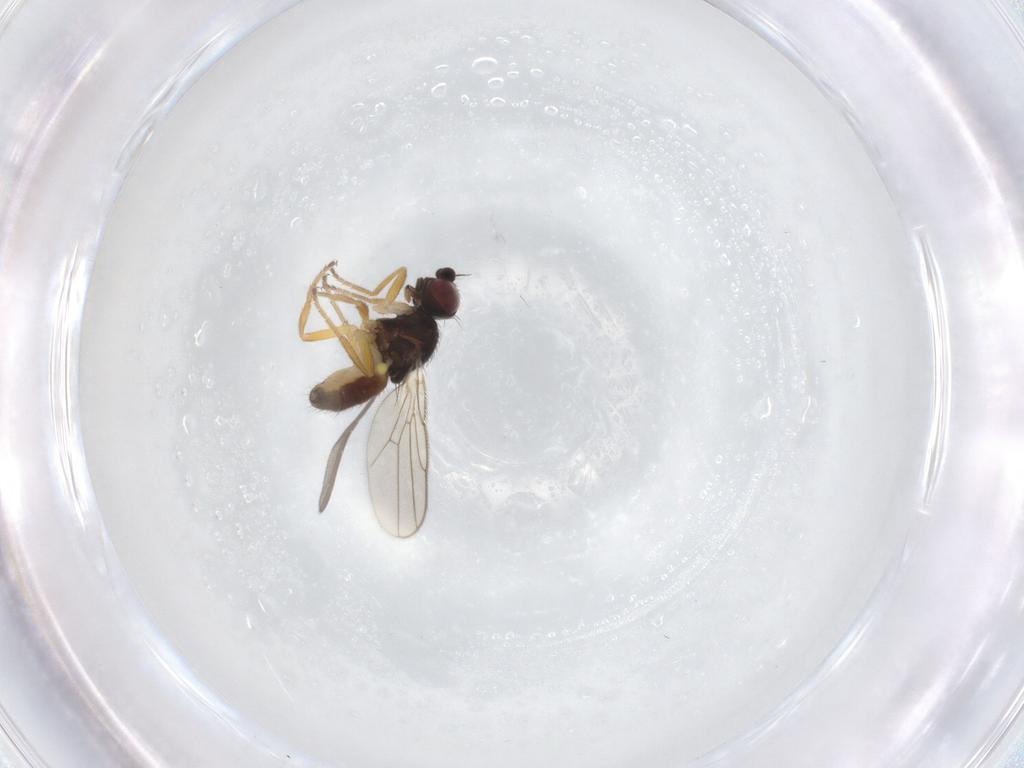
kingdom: Animalia
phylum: Arthropoda
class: Insecta
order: Diptera
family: Chloropidae
